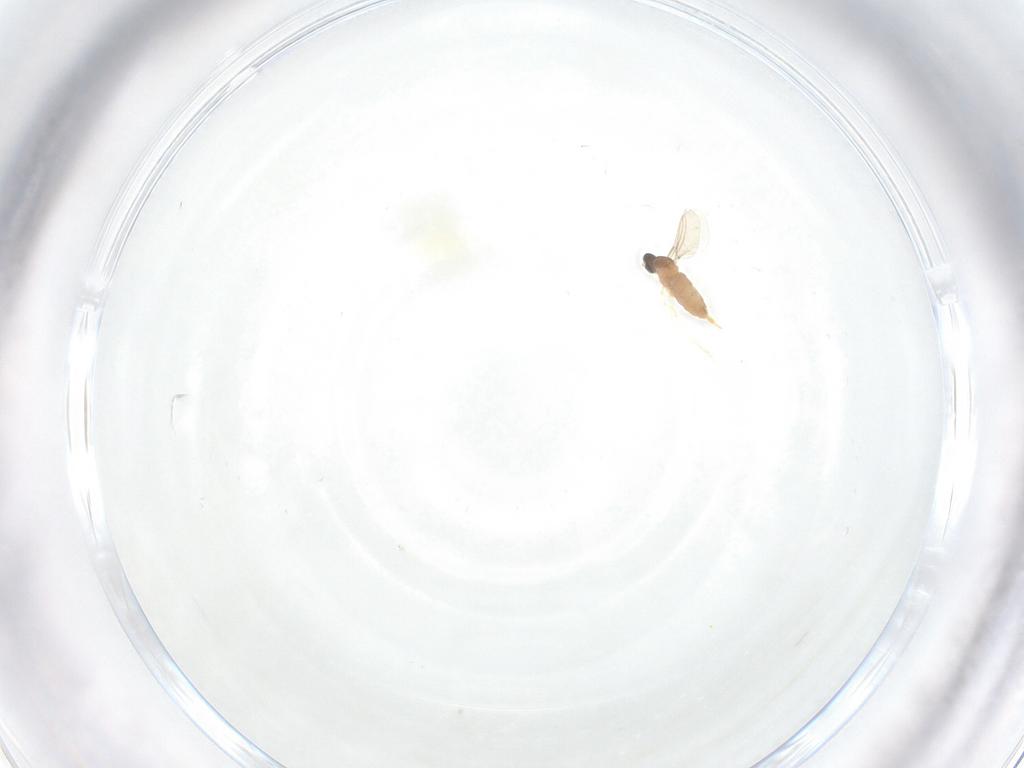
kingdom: Animalia
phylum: Arthropoda
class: Insecta
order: Diptera
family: Cecidomyiidae
